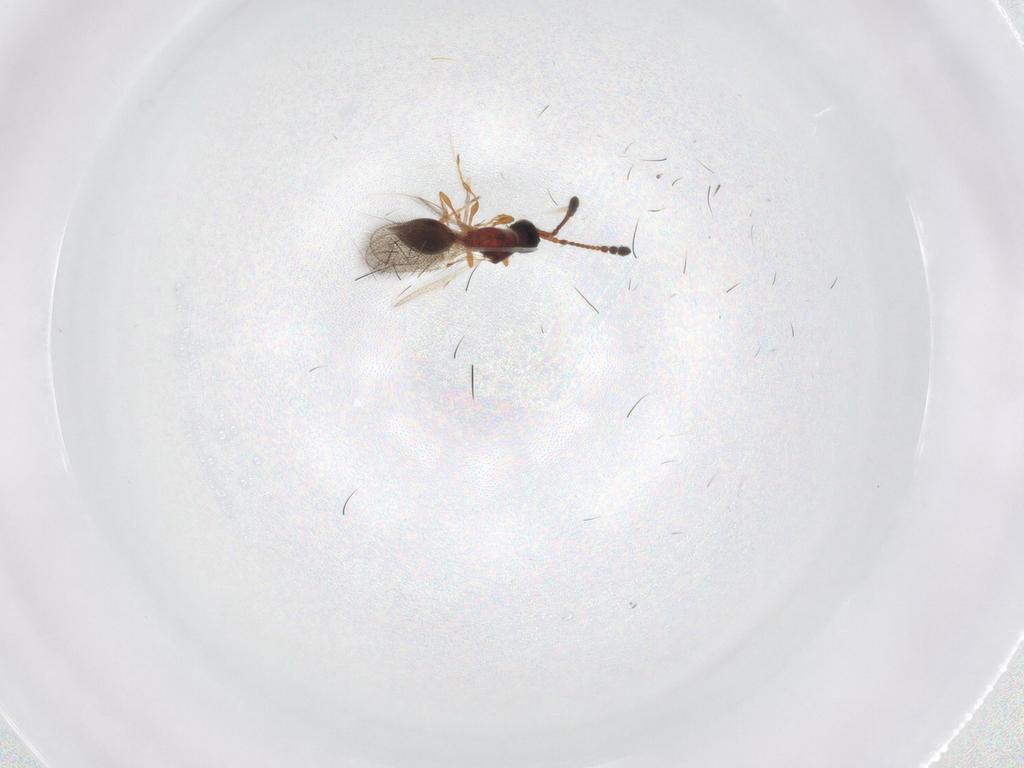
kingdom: Animalia
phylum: Arthropoda
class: Insecta
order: Hymenoptera
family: Diapriidae
